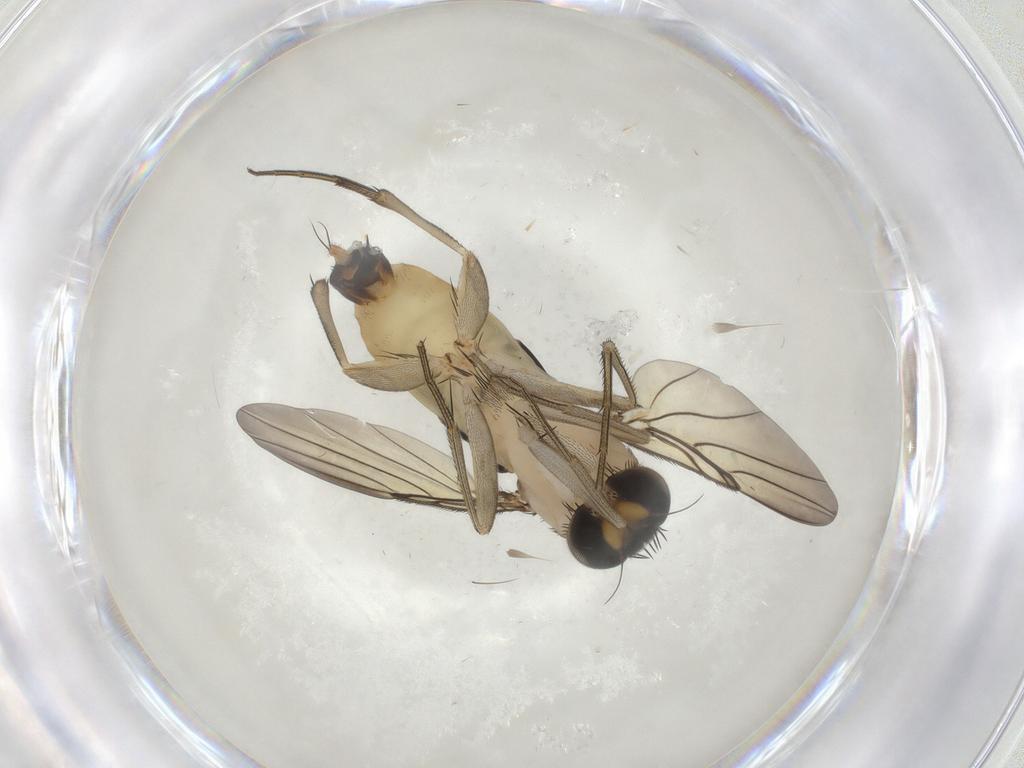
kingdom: Animalia
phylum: Arthropoda
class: Insecta
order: Diptera
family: Phoridae
